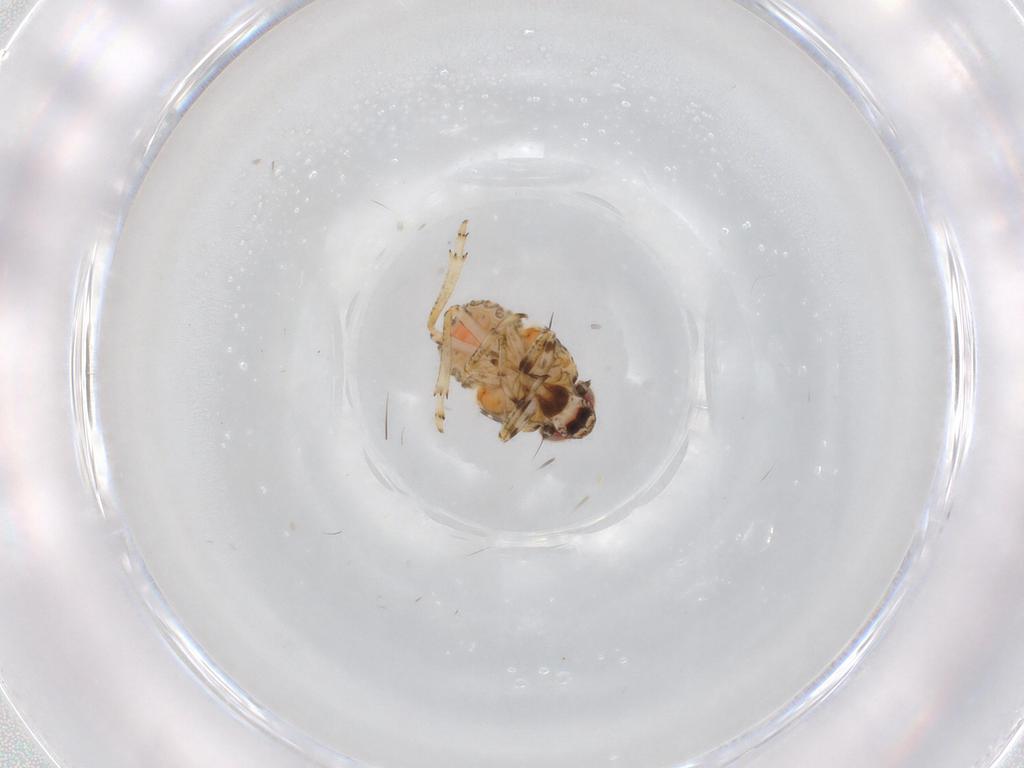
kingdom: Animalia
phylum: Arthropoda
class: Insecta
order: Hemiptera
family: Issidae
